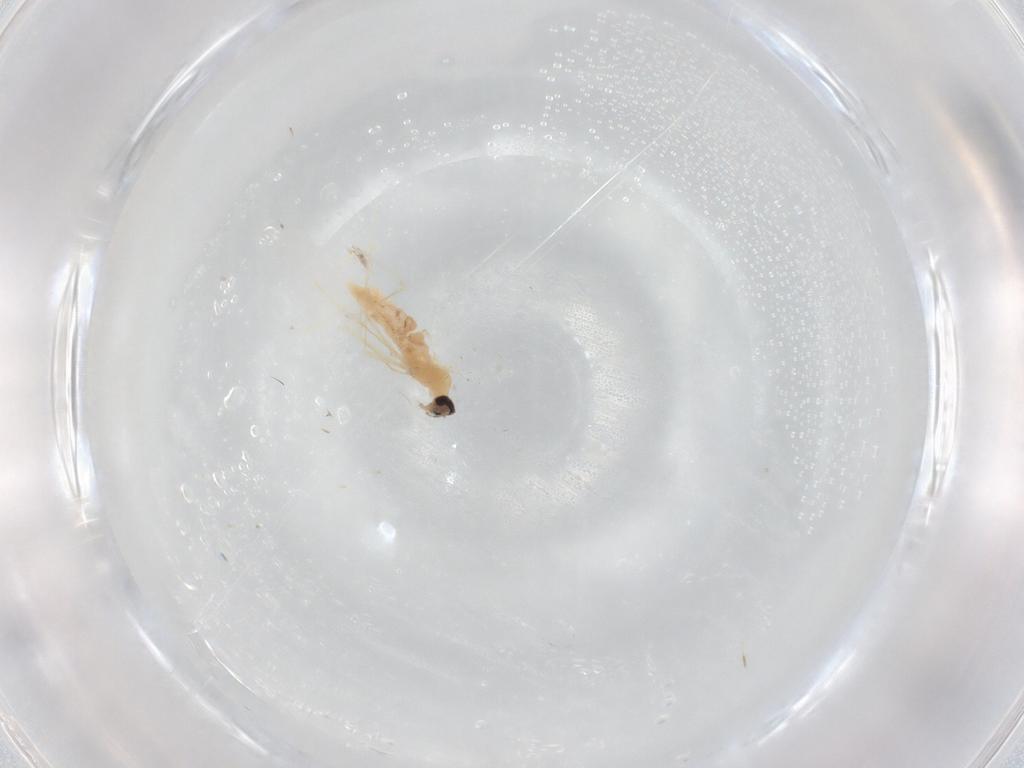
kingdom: Animalia
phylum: Arthropoda
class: Insecta
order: Diptera
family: Cecidomyiidae
